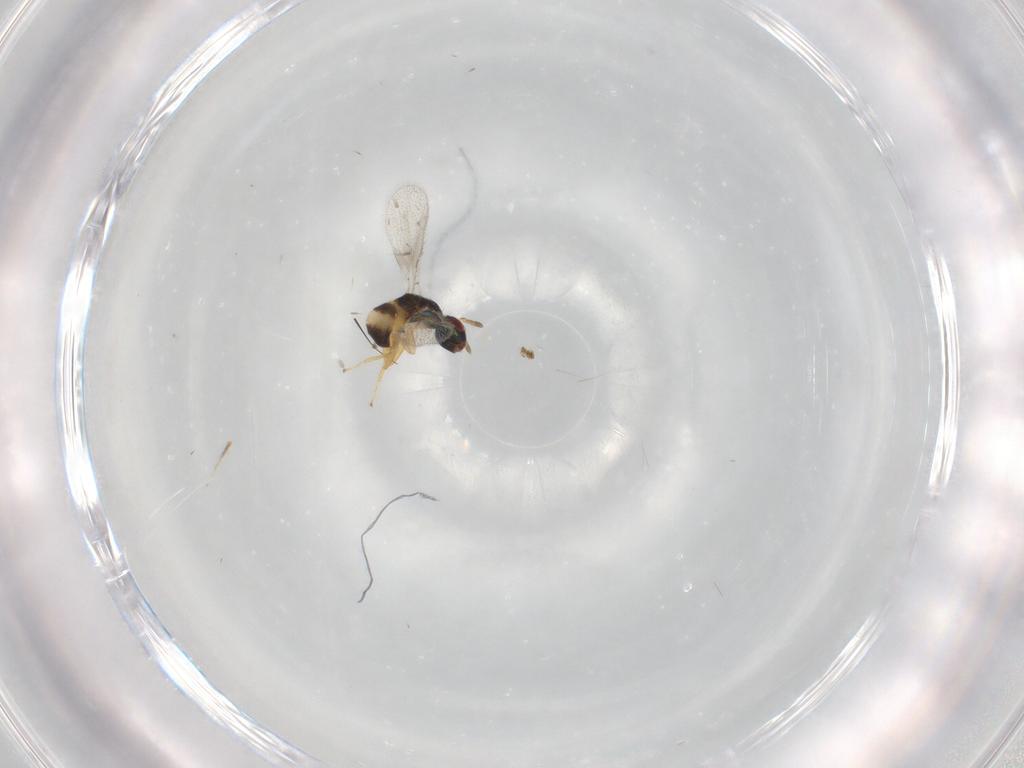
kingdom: Animalia
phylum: Arthropoda
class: Insecta
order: Hymenoptera
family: Torymidae
